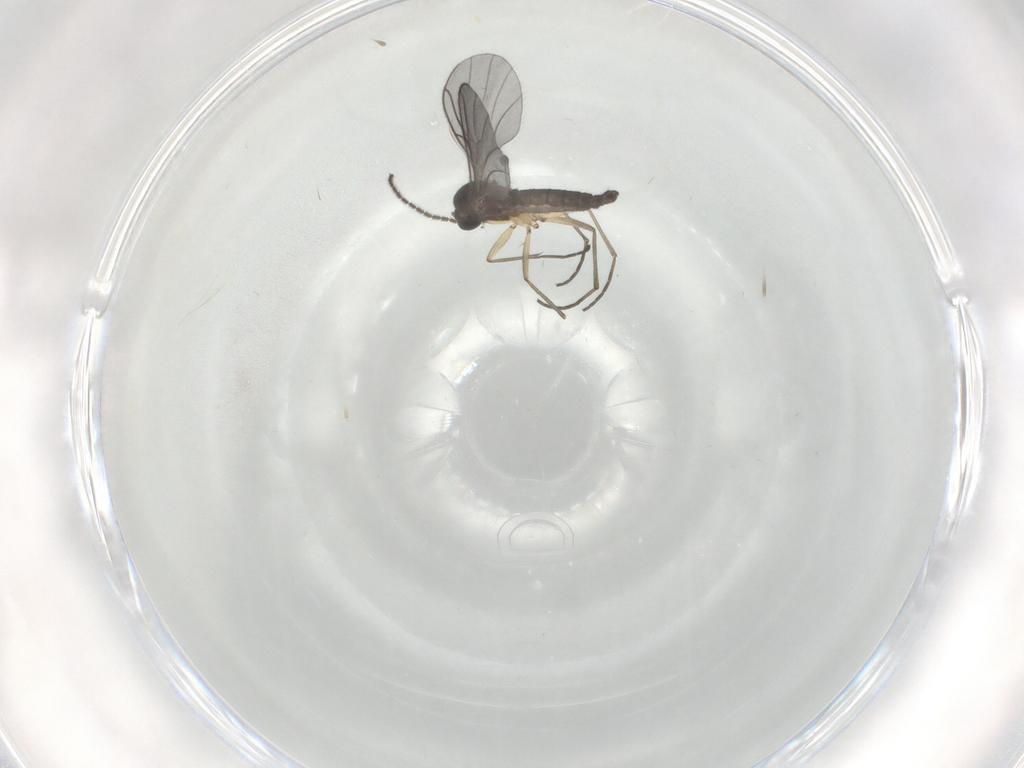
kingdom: Animalia
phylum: Arthropoda
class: Insecta
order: Diptera
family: Sciaridae
